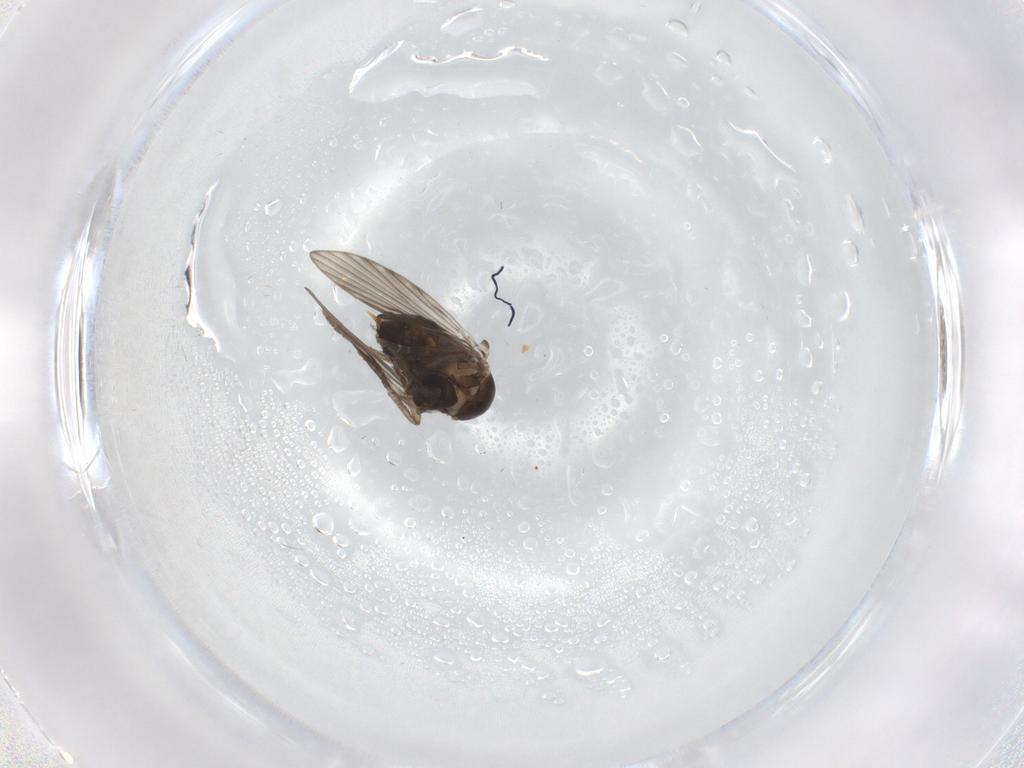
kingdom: Animalia
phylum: Arthropoda
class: Insecta
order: Diptera
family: Psychodidae
